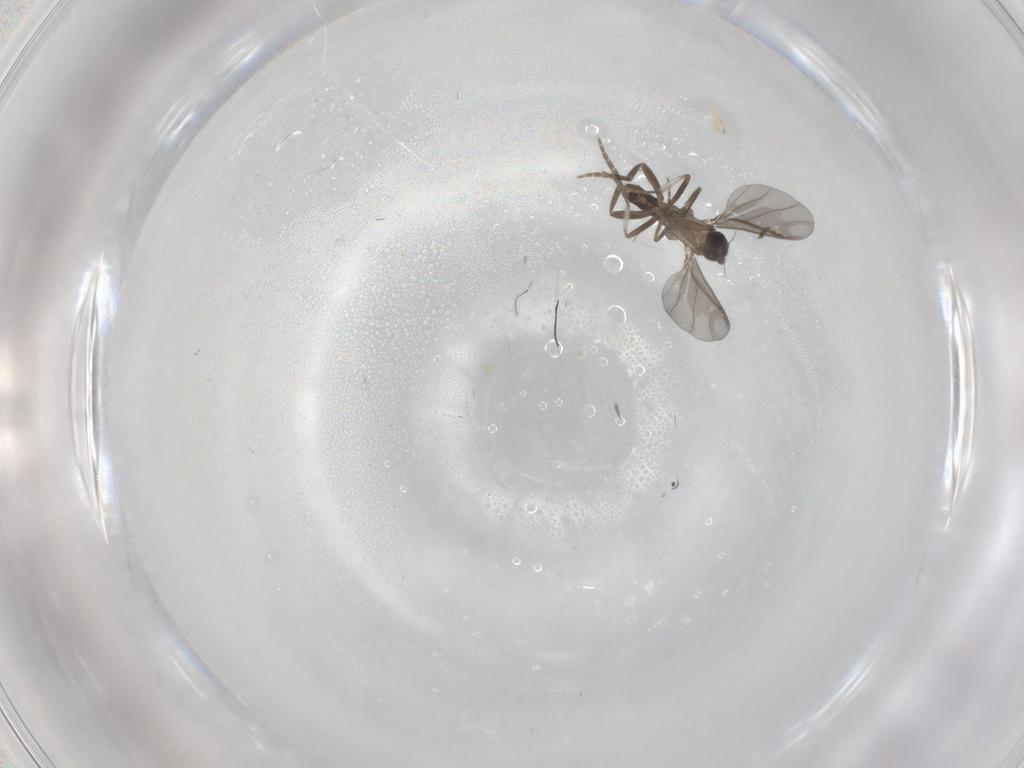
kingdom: Animalia
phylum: Arthropoda
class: Insecta
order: Diptera
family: Cecidomyiidae
